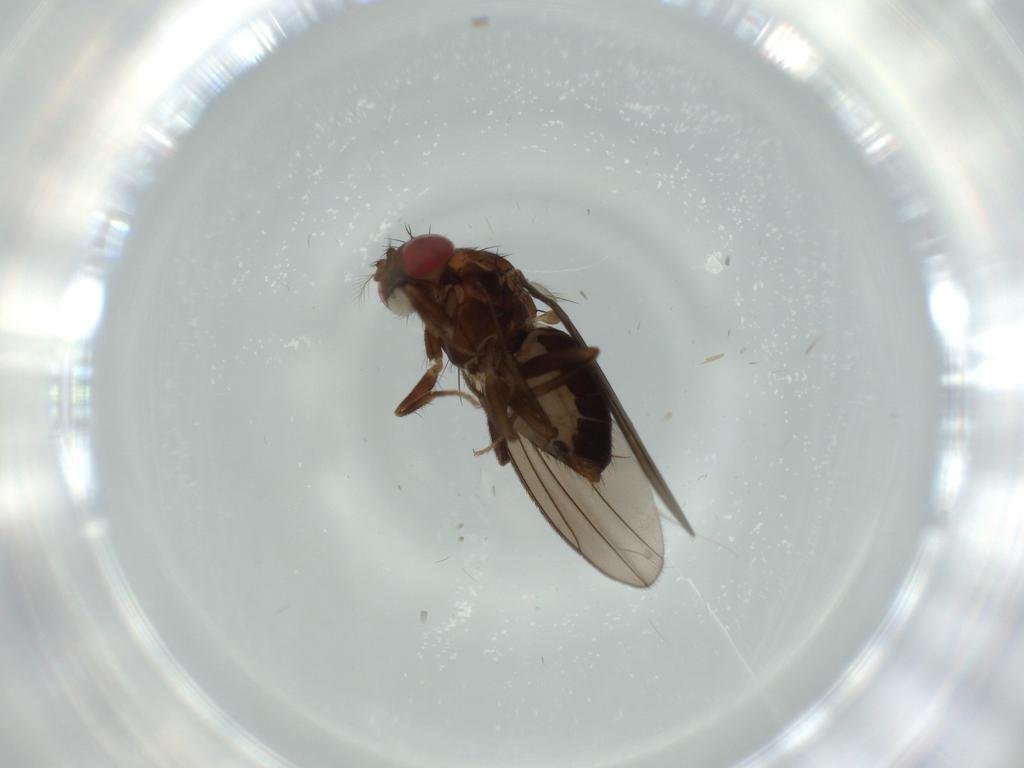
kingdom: Animalia
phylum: Arthropoda
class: Insecta
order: Diptera
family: Drosophilidae
